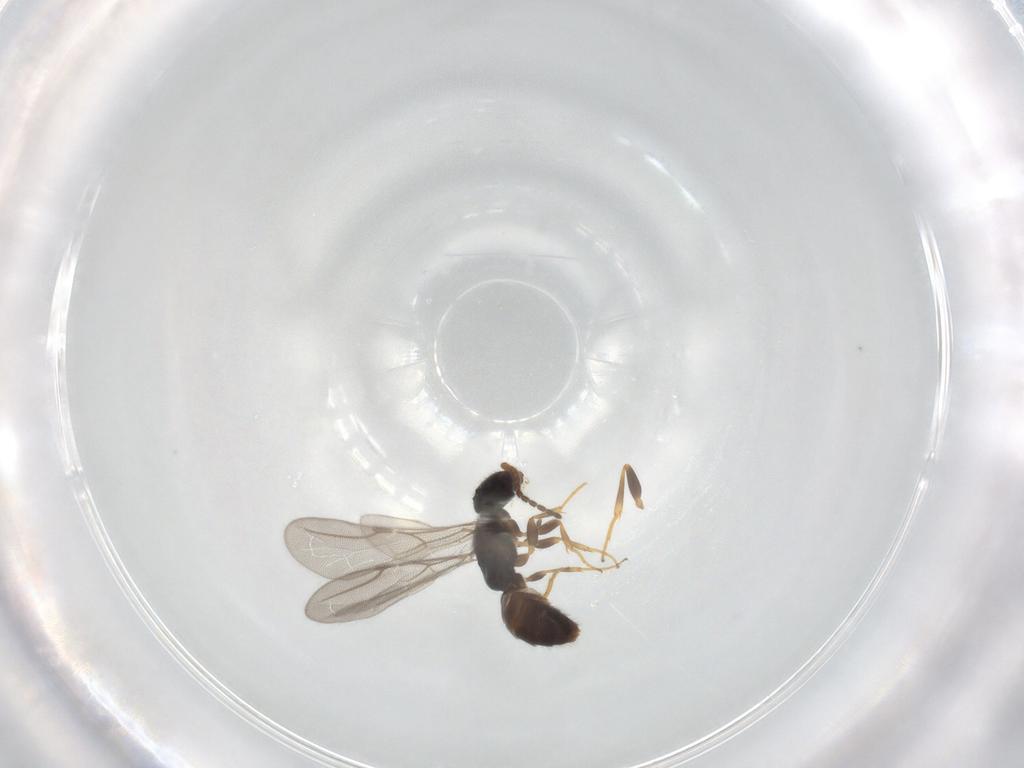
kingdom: Animalia
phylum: Arthropoda
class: Insecta
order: Hymenoptera
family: Bethylidae
